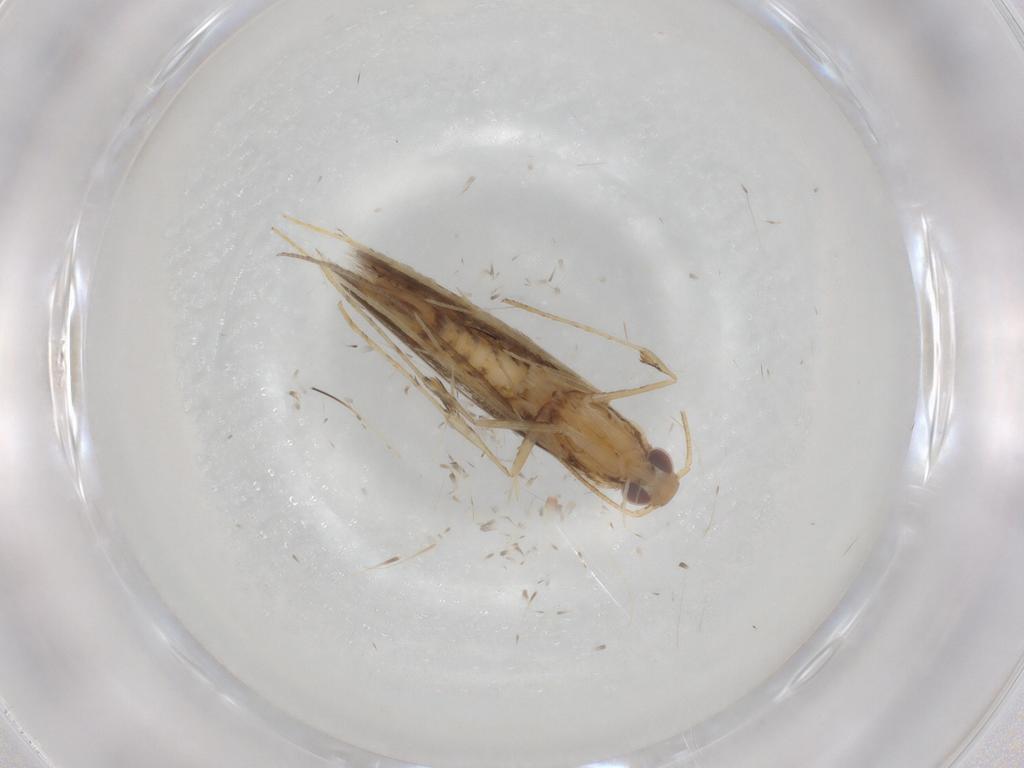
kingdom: Animalia
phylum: Arthropoda
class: Insecta
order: Lepidoptera
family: Gracillariidae
